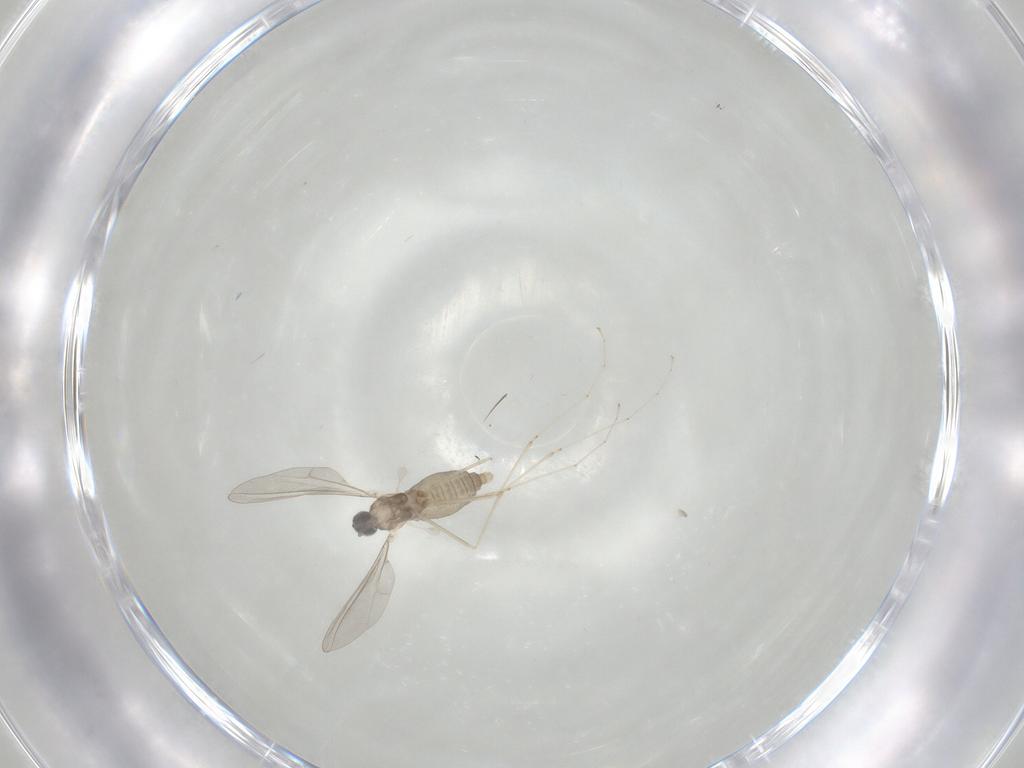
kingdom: Animalia
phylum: Arthropoda
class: Insecta
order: Diptera
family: Cecidomyiidae
